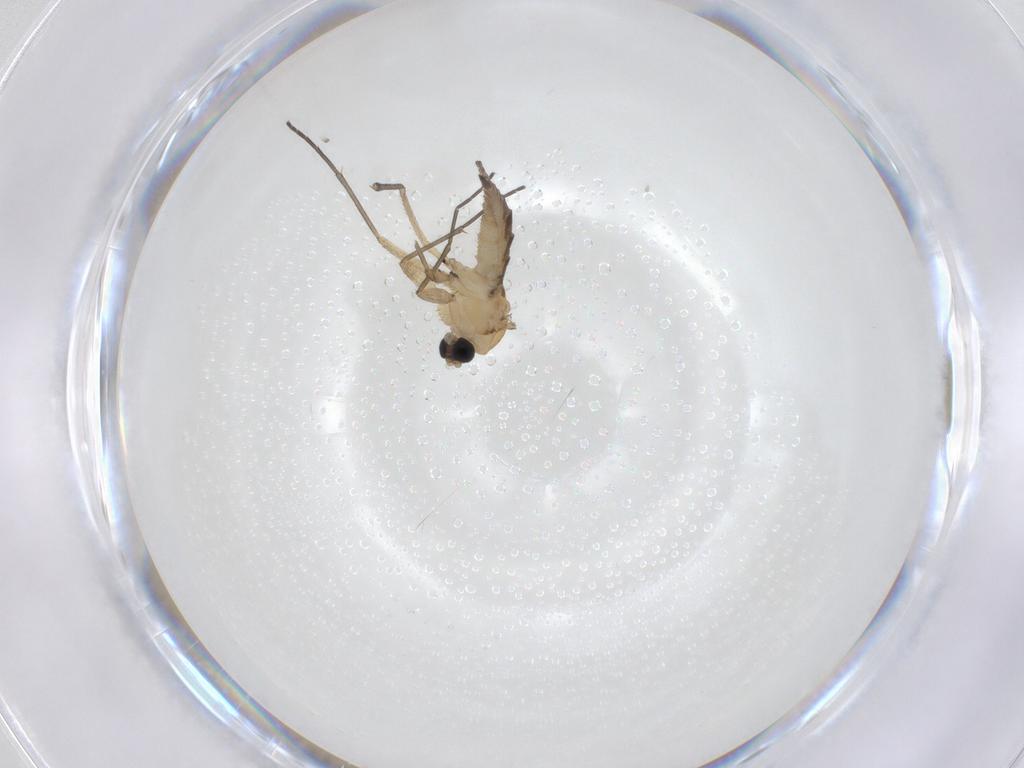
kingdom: Animalia
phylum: Arthropoda
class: Insecta
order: Diptera
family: Sciaridae
